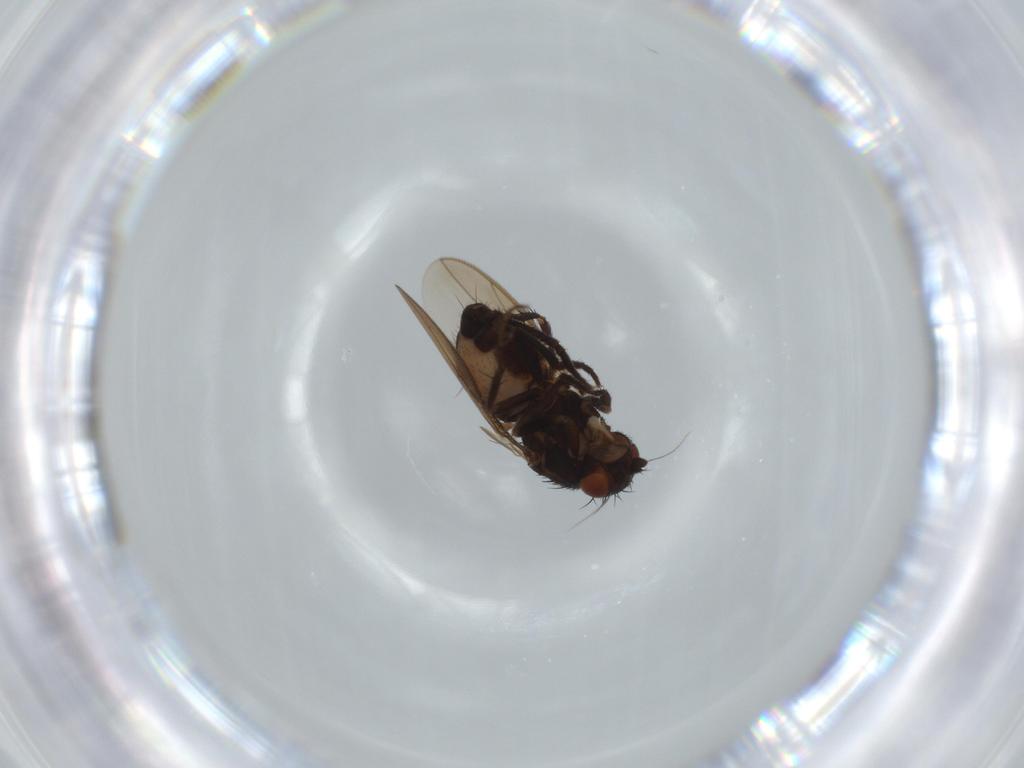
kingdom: Animalia
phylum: Arthropoda
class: Insecta
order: Diptera
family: Sphaeroceridae
